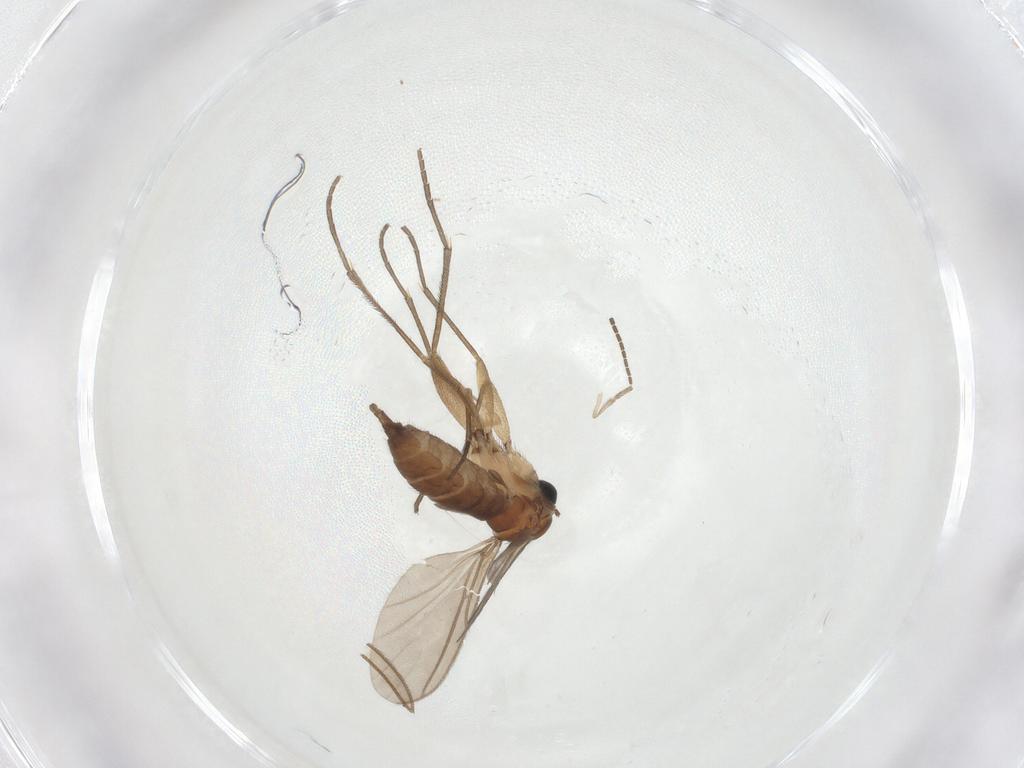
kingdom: Animalia
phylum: Arthropoda
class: Insecta
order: Diptera
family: Sciaridae
